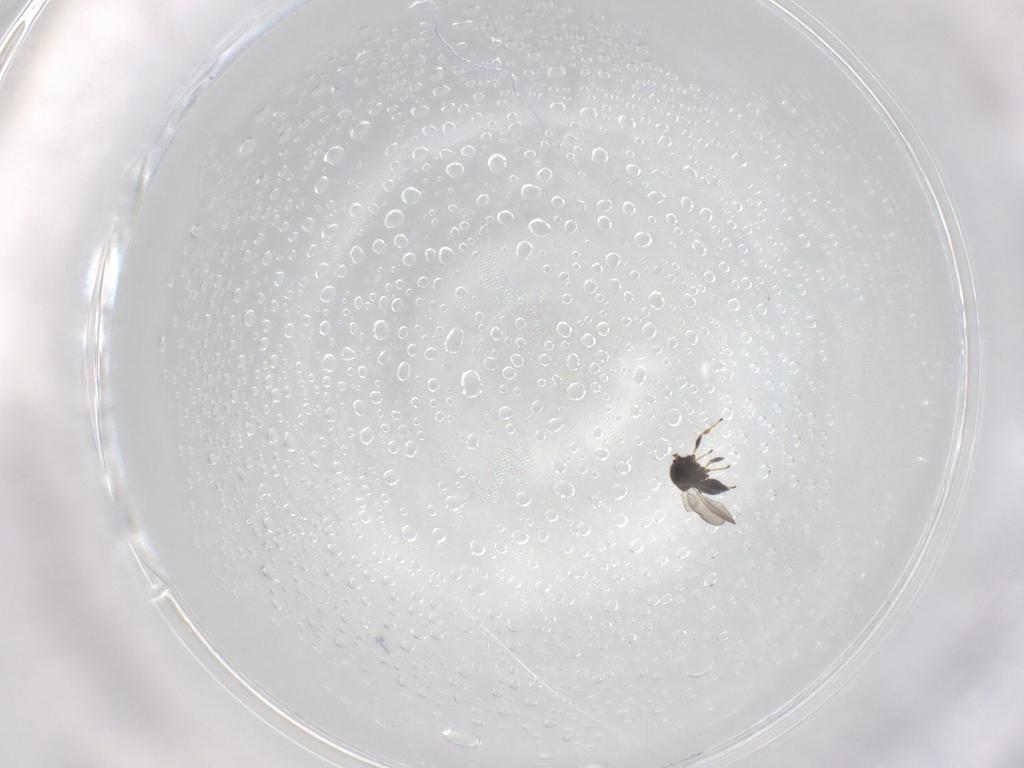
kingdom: Animalia
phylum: Arthropoda
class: Insecta
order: Hymenoptera
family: Platygastridae
